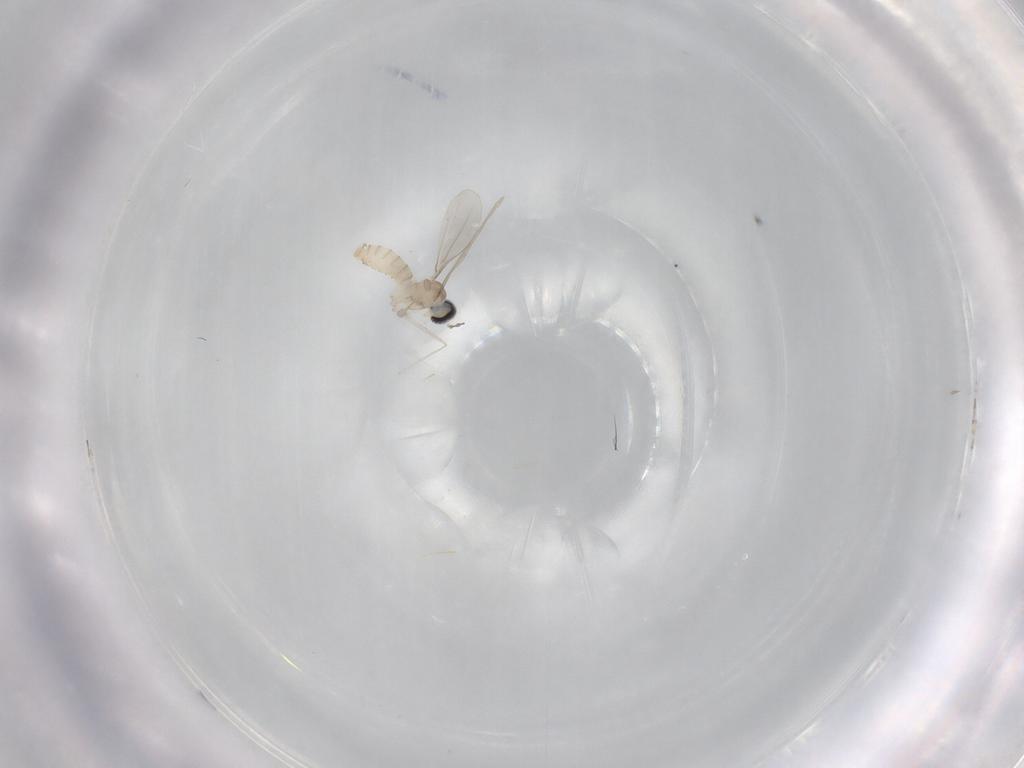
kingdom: Animalia
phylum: Arthropoda
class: Insecta
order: Diptera
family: Cecidomyiidae
